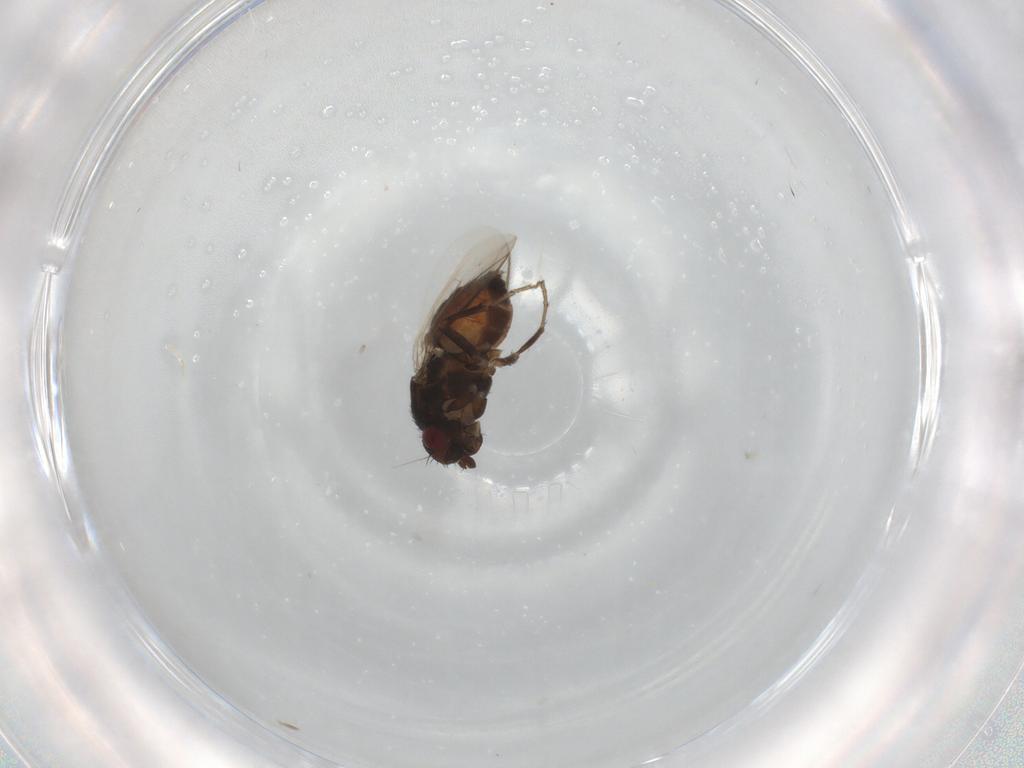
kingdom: Animalia
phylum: Arthropoda
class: Insecta
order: Diptera
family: Sphaeroceridae
